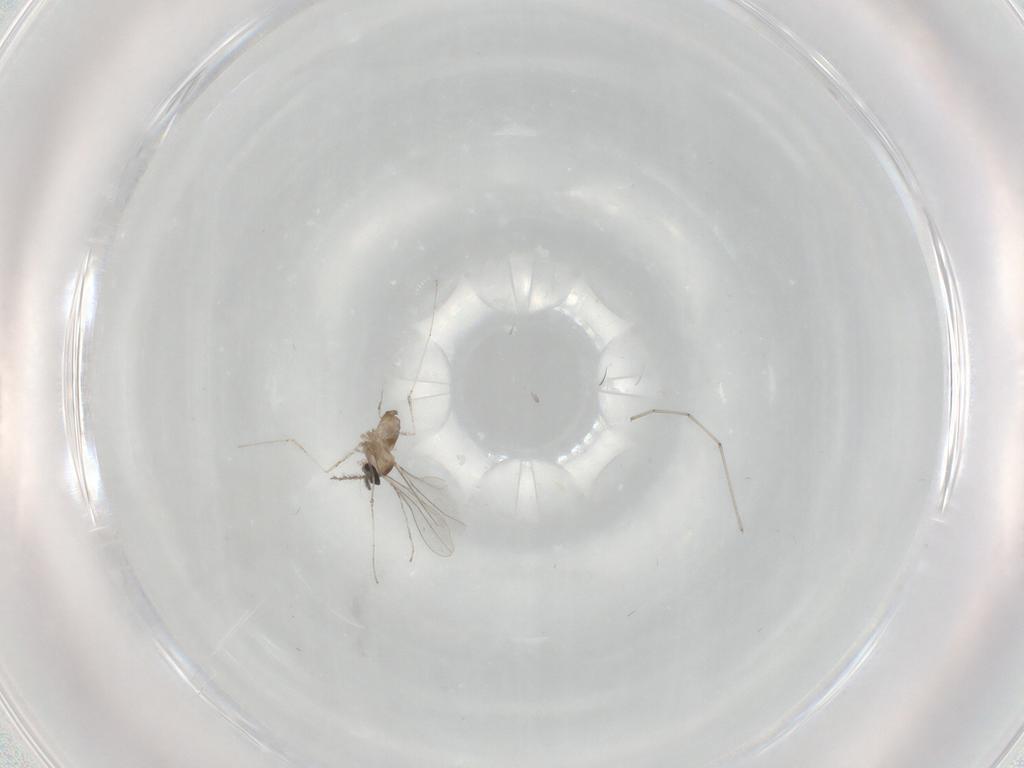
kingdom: Animalia
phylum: Arthropoda
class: Insecta
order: Diptera
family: Cecidomyiidae
